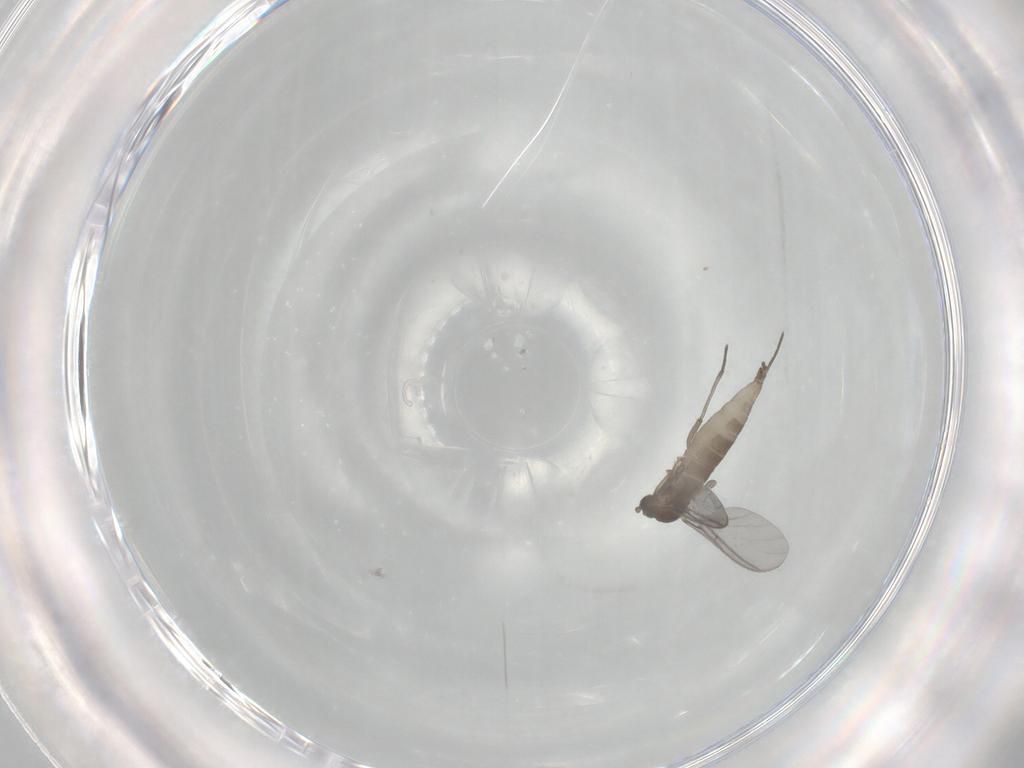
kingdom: Animalia
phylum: Arthropoda
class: Insecta
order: Diptera
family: Sciaridae
